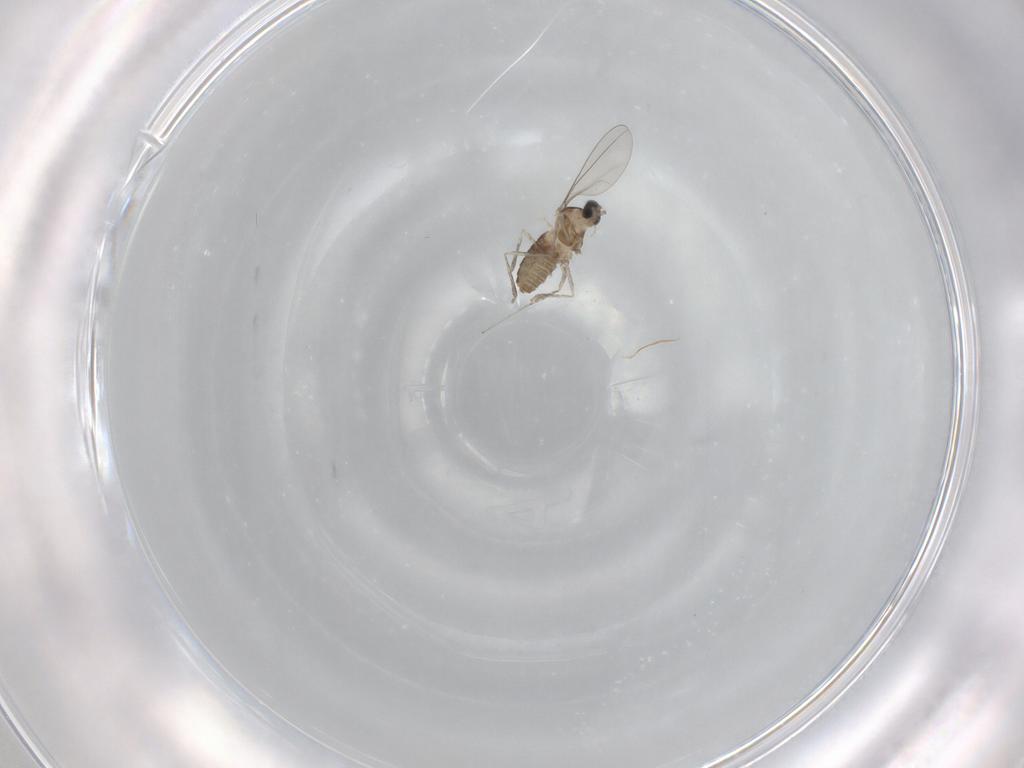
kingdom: Animalia
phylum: Arthropoda
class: Insecta
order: Diptera
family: Cecidomyiidae
